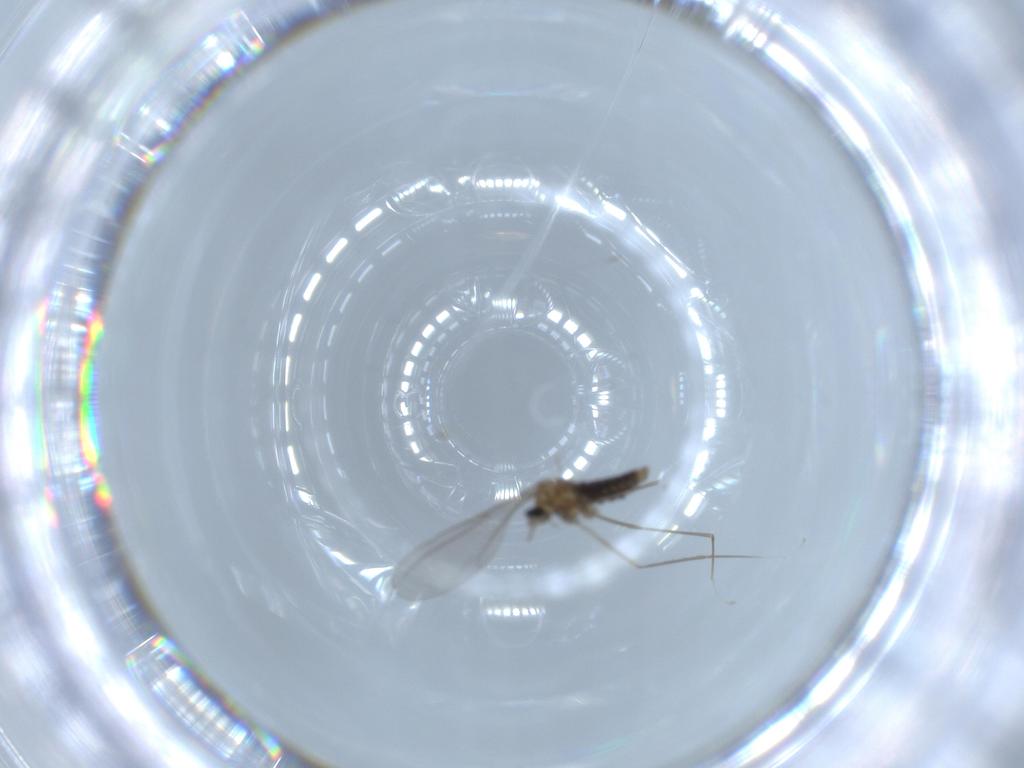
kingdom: Animalia
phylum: Arthropoda
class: Insecta
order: Diptera
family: Cecidomyiidae
